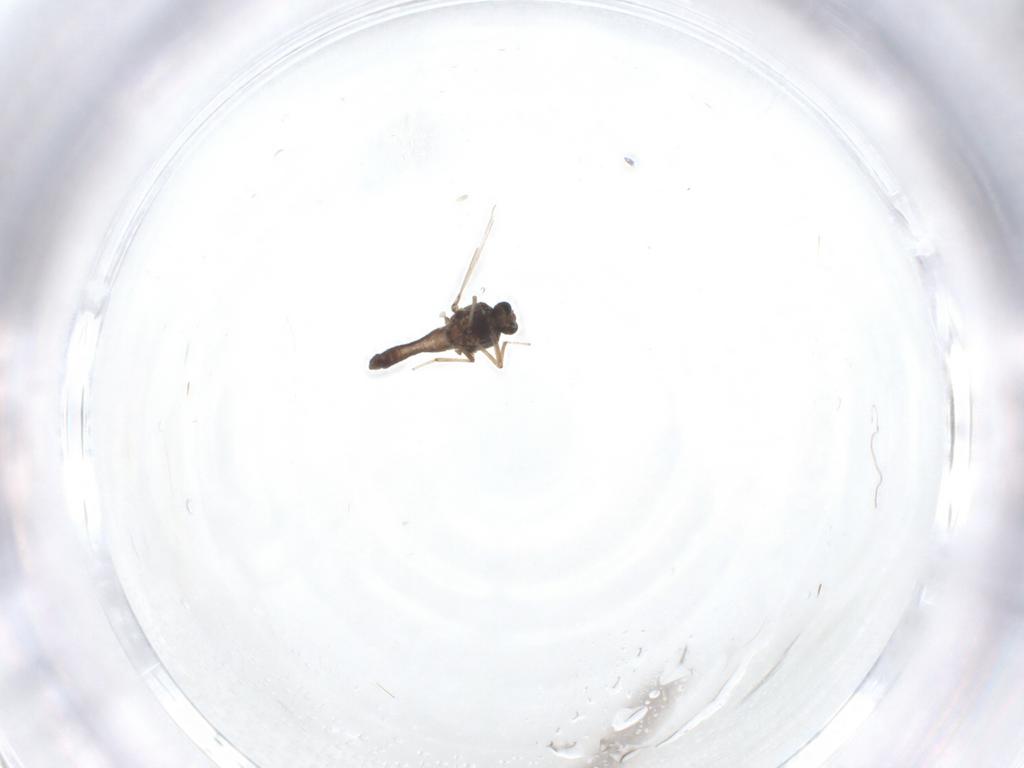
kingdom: Animalia
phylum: Arthropoda
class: Insecta
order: Diptera
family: Ceratopogonidae
